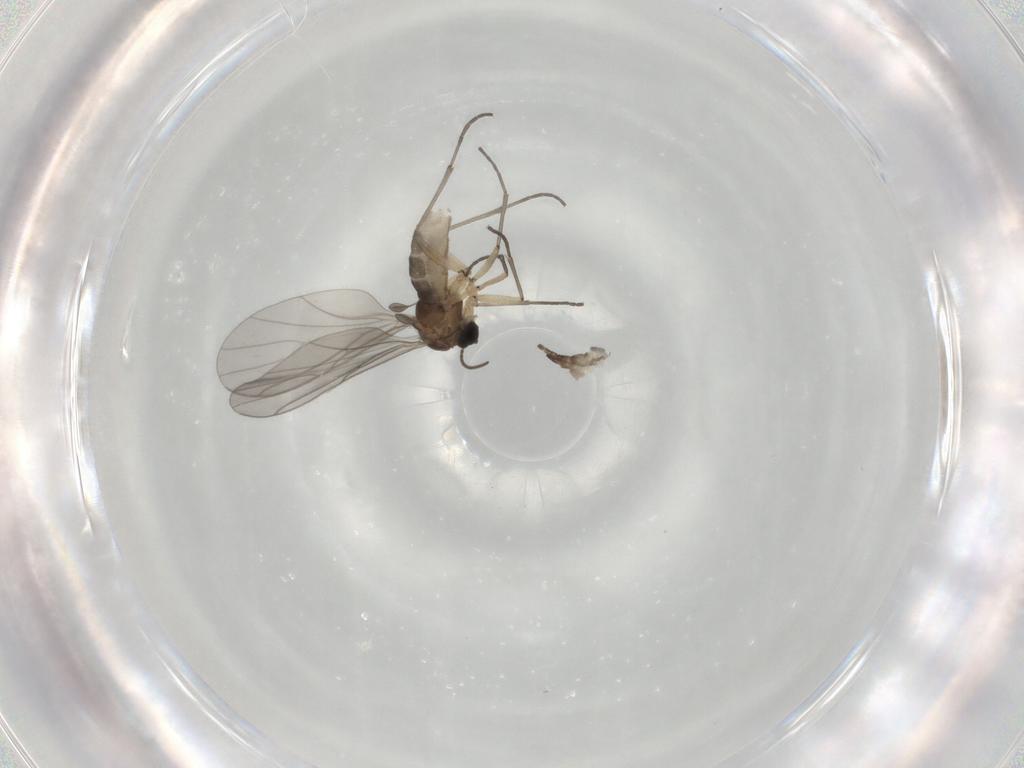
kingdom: Animalia
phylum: Arthropoda
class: Insecta
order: Diptera
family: Sciaridae
